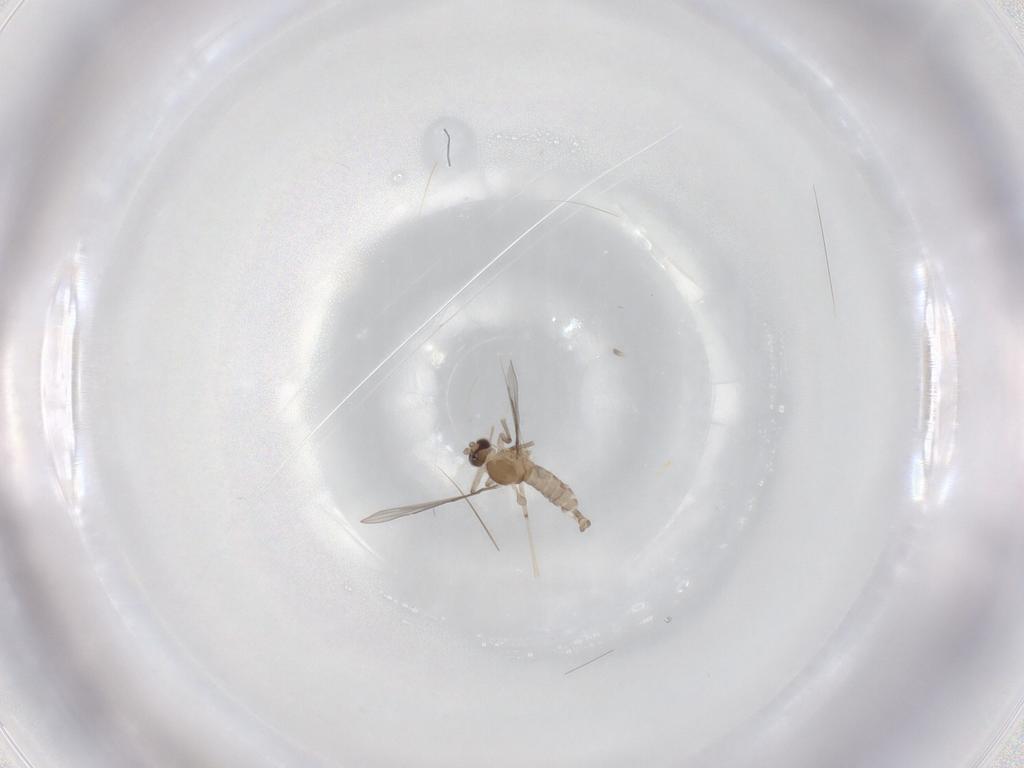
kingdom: Animalia
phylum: Arthropoda
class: Insecta
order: Diptera
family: Cecidomyiidae
